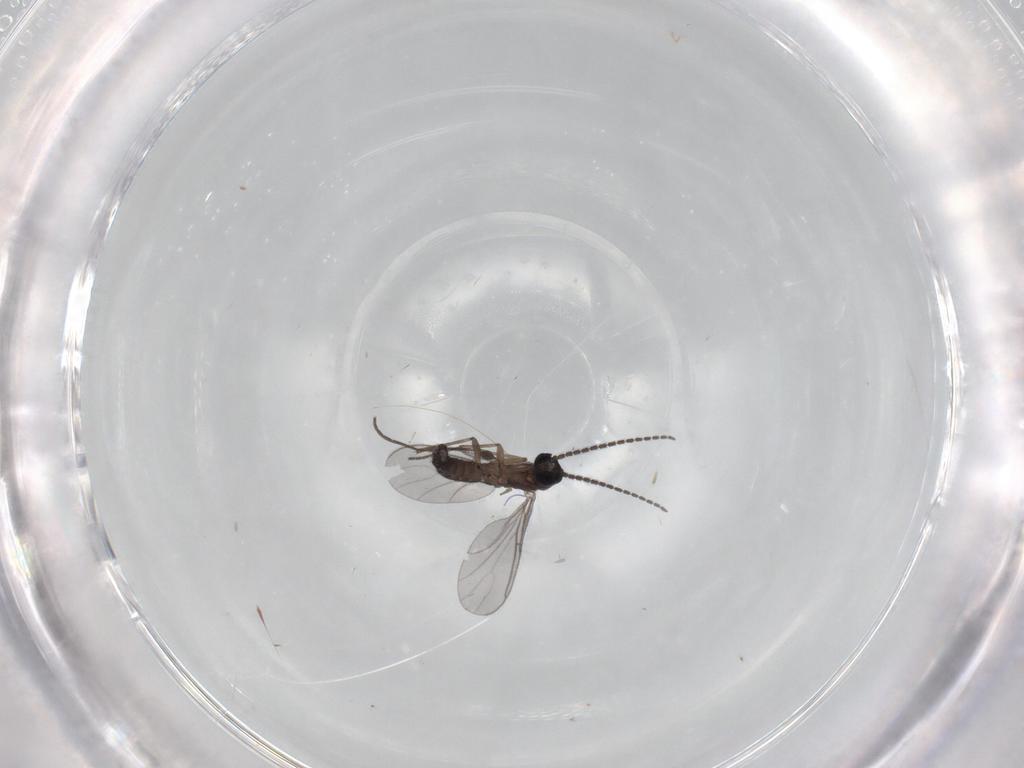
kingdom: Animalia
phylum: Arthropoda
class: Insecta
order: Diptera
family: Sciaridae
